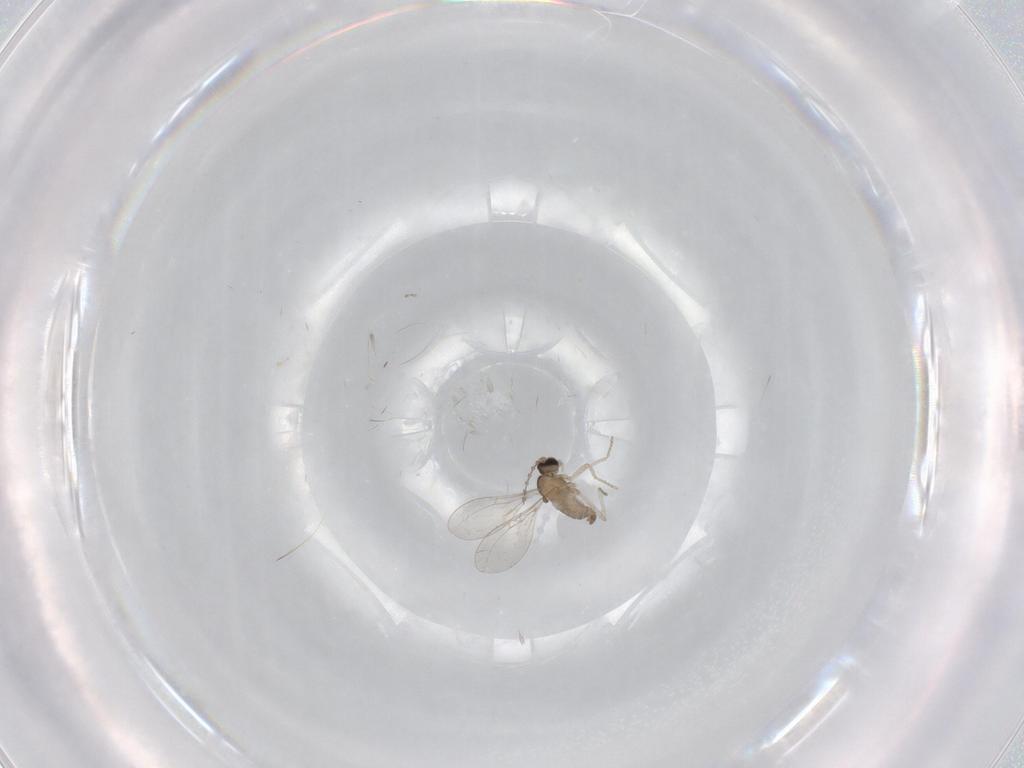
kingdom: Animalia
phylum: Arthropoda
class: Insecta
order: Diptera
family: Cecidomyiidae
